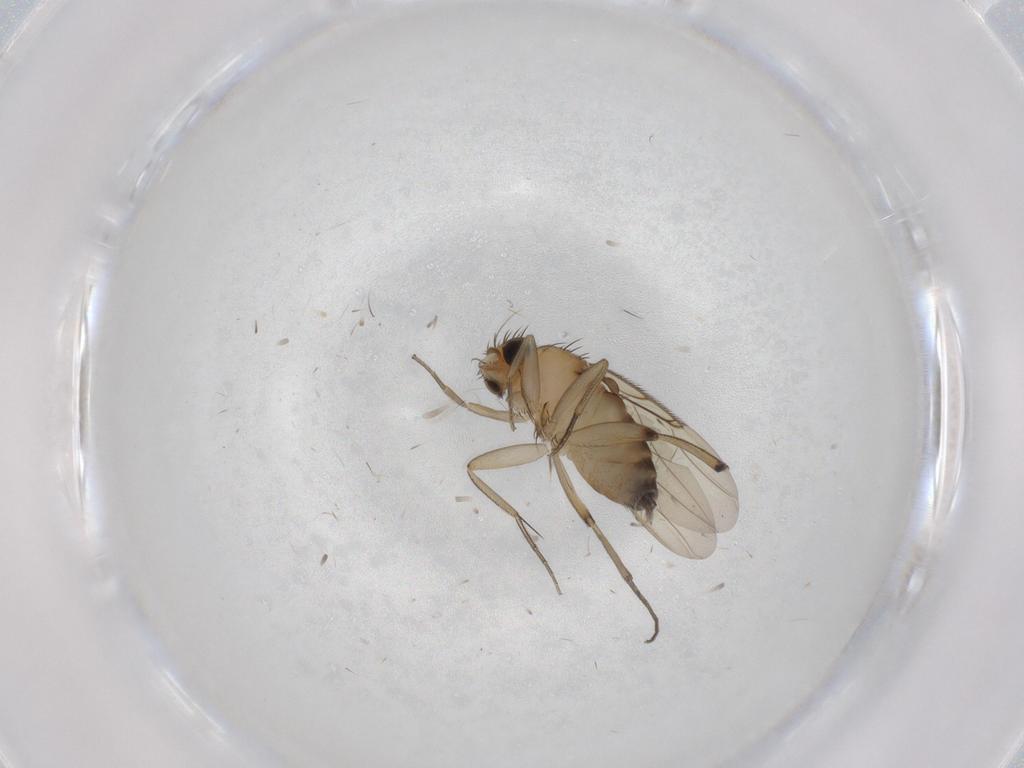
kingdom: Animalia
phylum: Arthropoda
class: Insecta
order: Diptera
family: Phoridae
